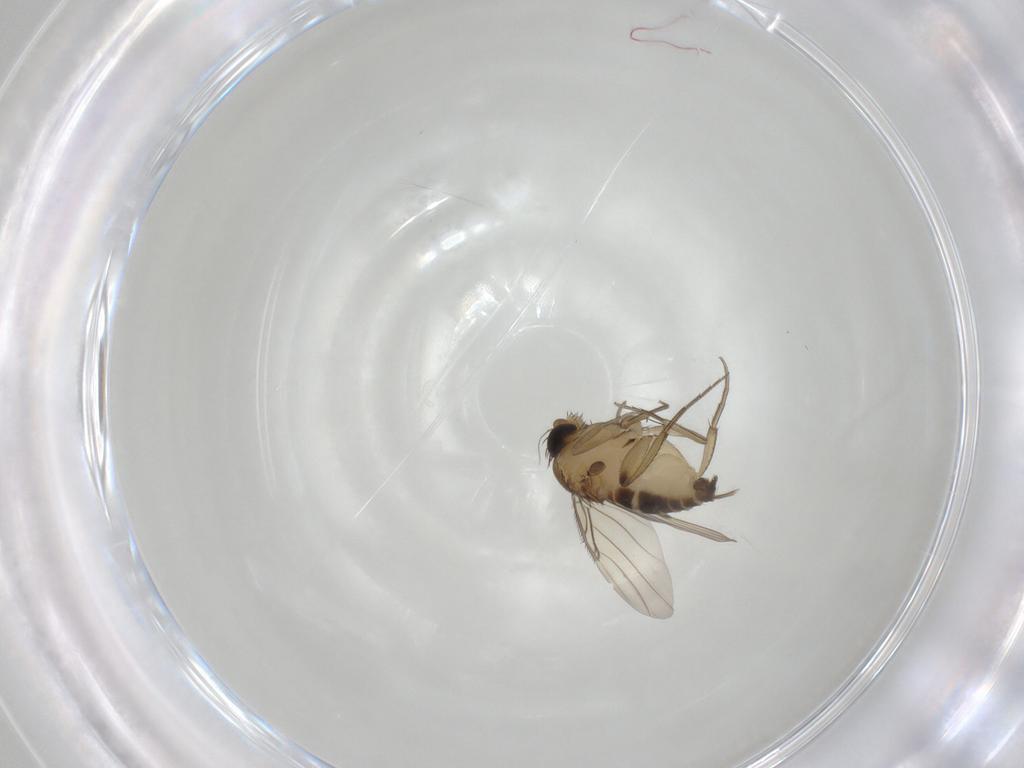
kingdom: Animalia
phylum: Arthropoda
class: Insecta
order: Diptera
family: Phoridae
